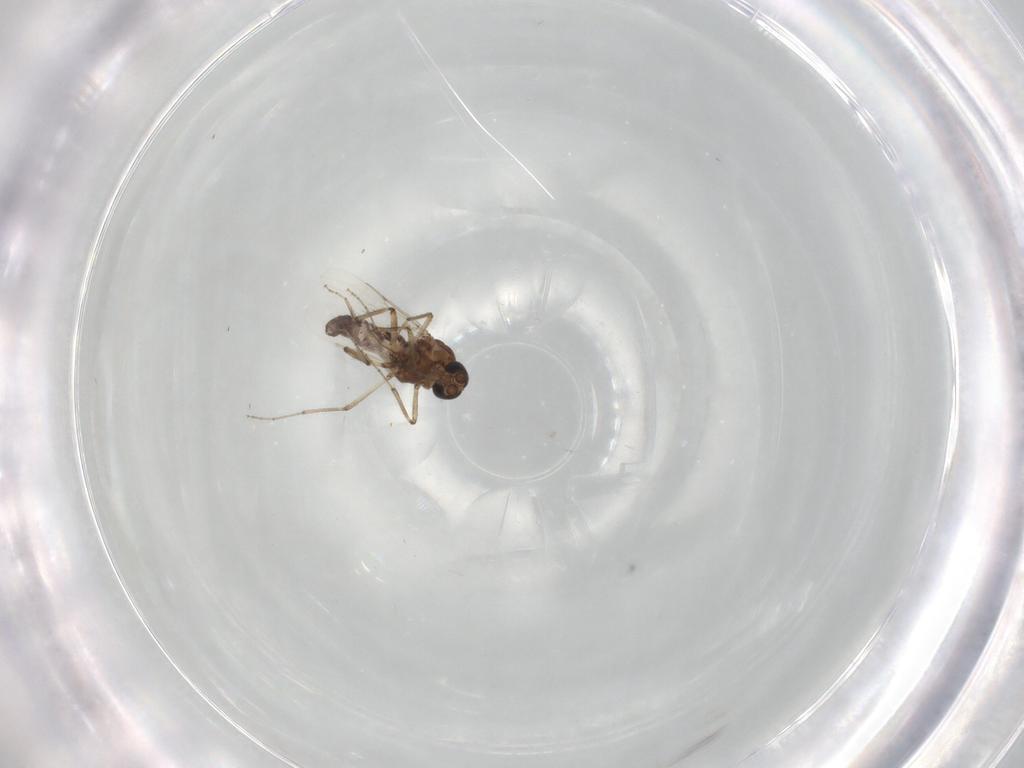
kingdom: Animalia
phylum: Arthropoda
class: Insecta
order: Diptera
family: Ceratopogonidae
